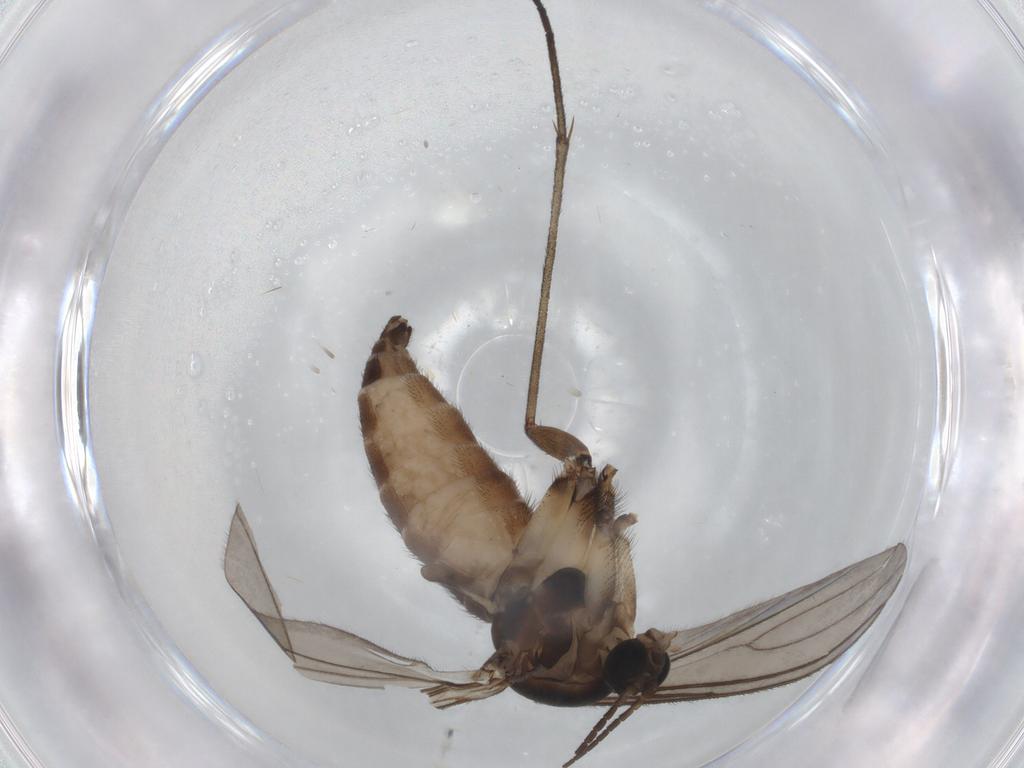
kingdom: Animalia
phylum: Arthropoda
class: Insecta
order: Diptera
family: Sciaridae
